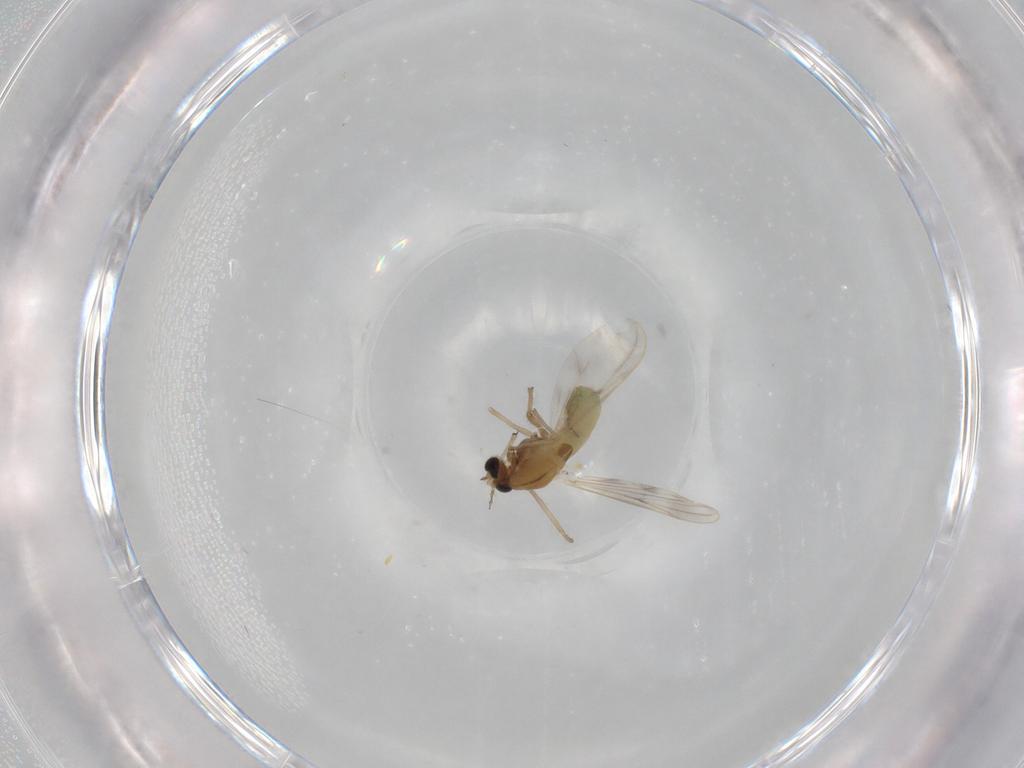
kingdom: Animalia
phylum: Arthropoda
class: Insecta
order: Diptera
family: Chironomidae
